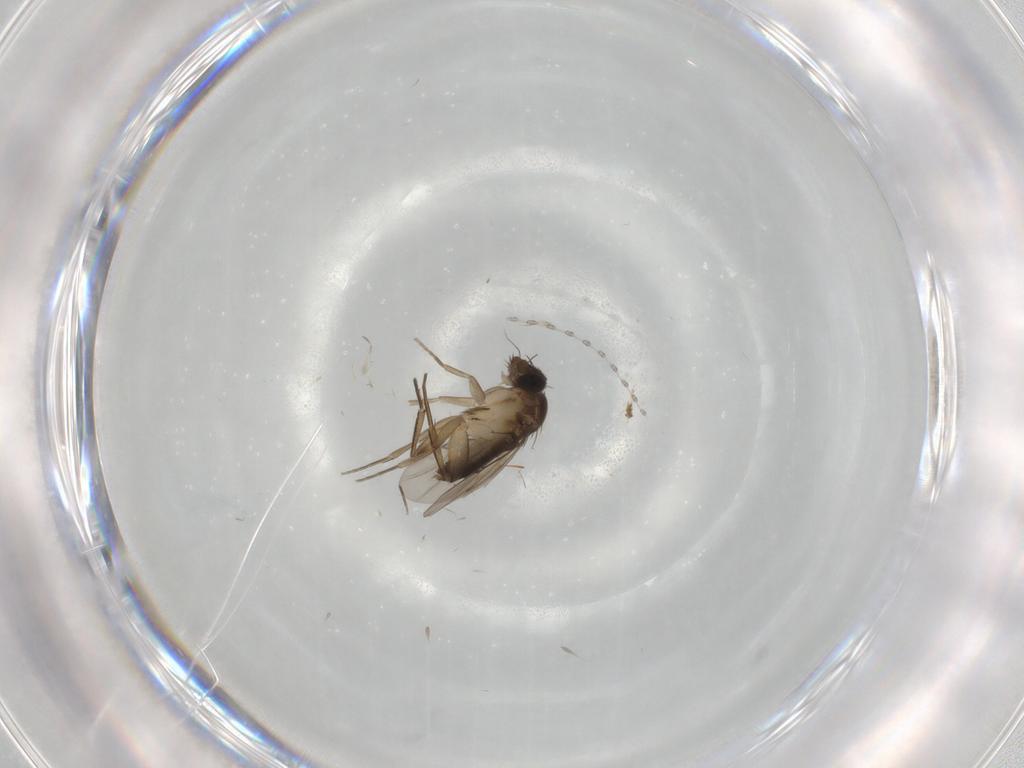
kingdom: Animalia
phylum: Arthropoda
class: Insecta
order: Diptera
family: Phoridae
